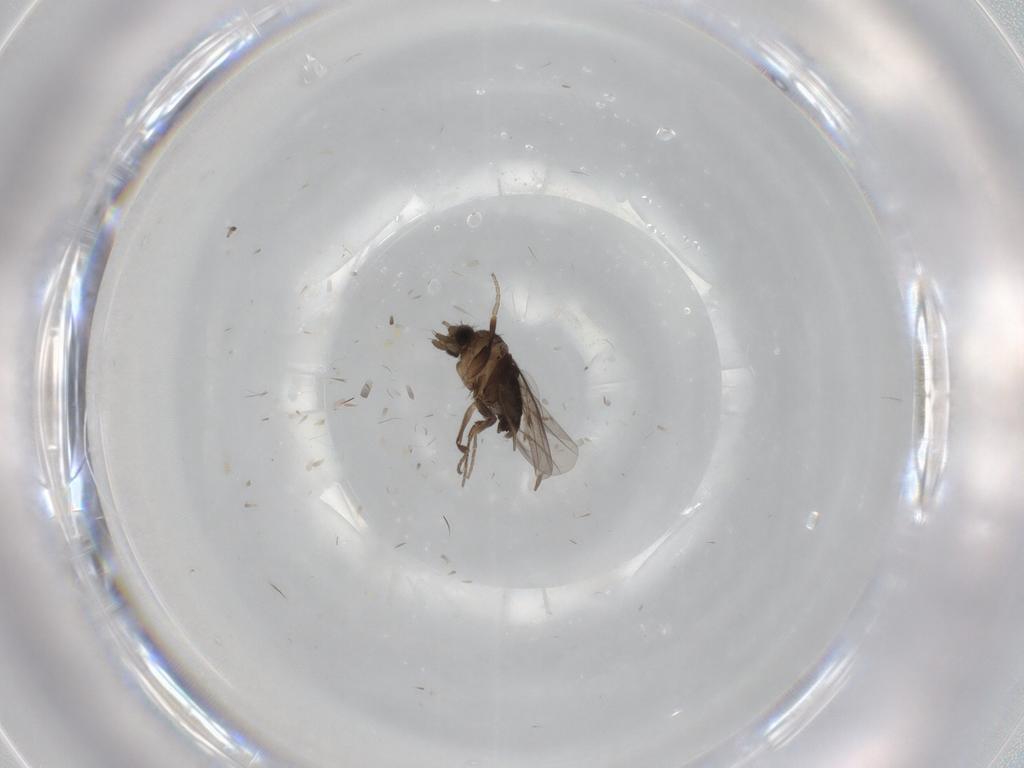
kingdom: Animalia
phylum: Arthropoda
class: Insecta
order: Diptera
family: Phoridae
